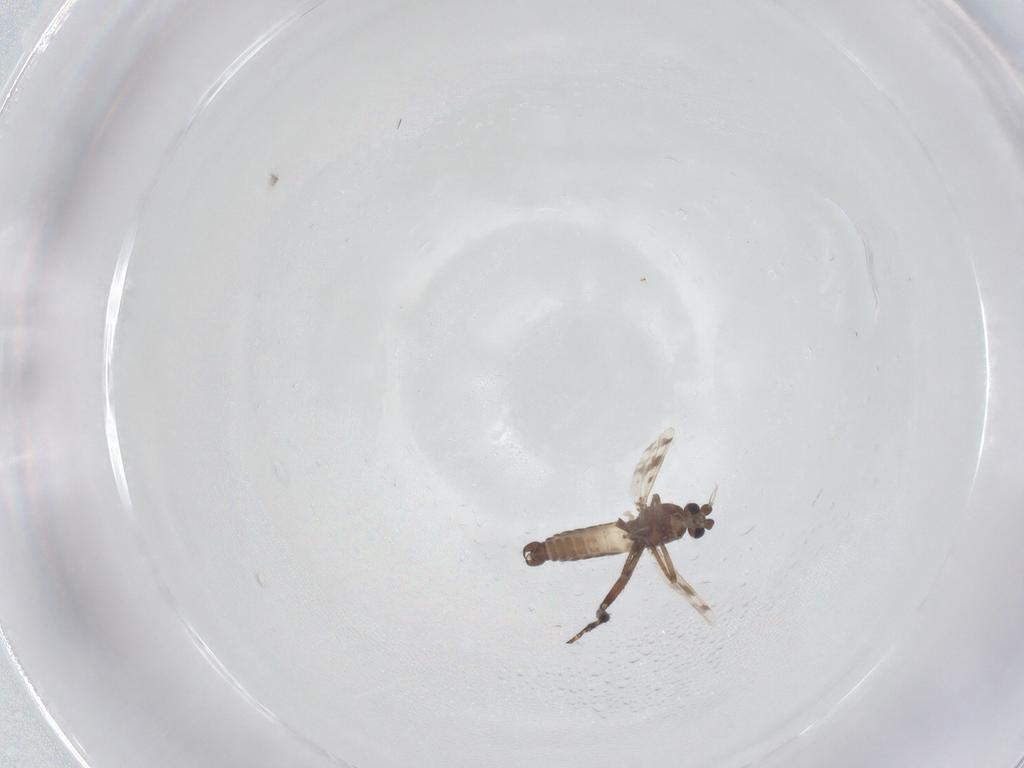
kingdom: Animalia
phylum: Arthropoda
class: Insecta
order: Diptera
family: Ceratopogonidae
